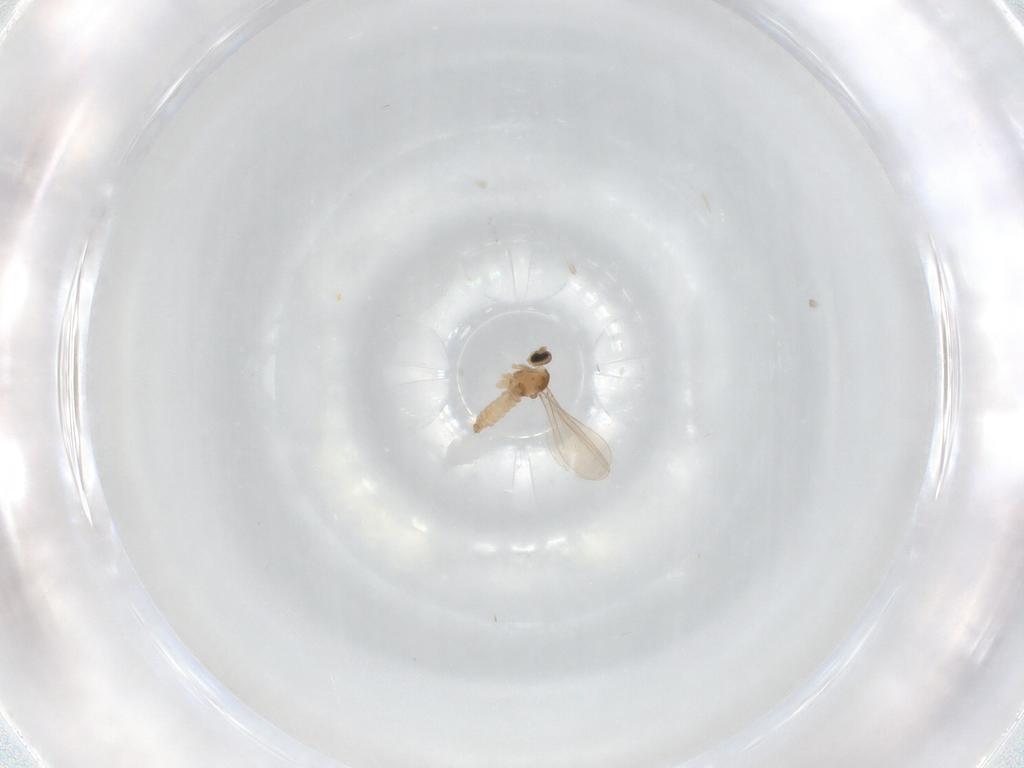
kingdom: Animalia
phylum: Arthropoda
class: Insecta
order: Diptera
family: Dolichopodidae
